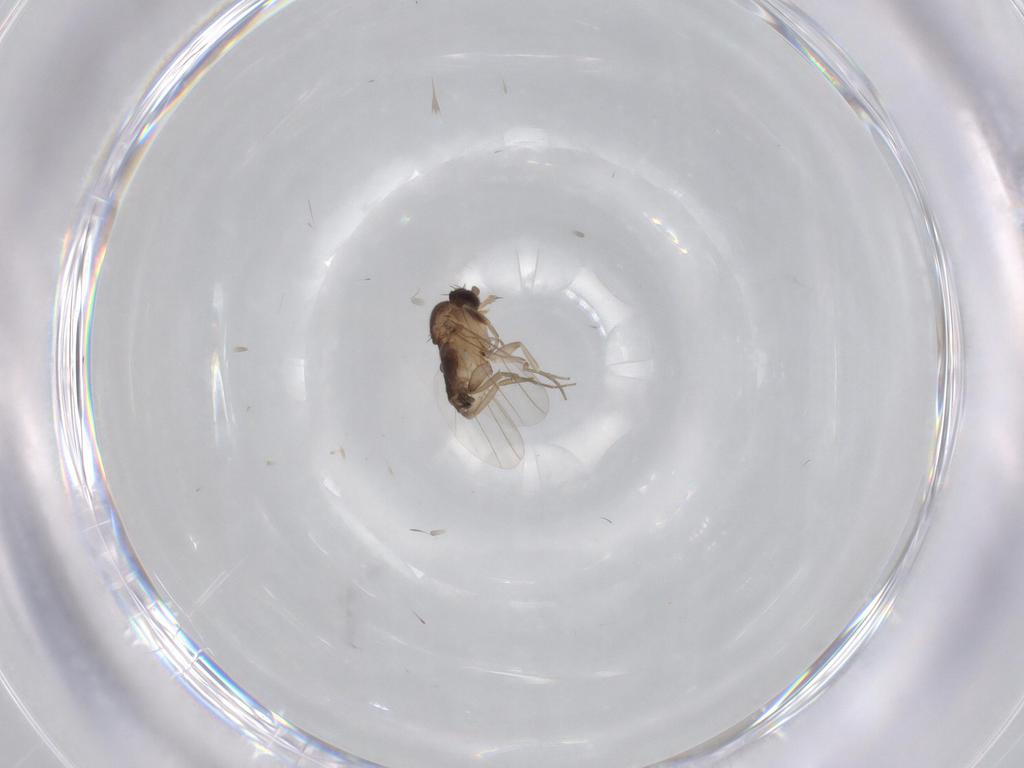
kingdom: Animalia
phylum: Arthropoda
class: Insecta
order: Diptera
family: Phoridae
